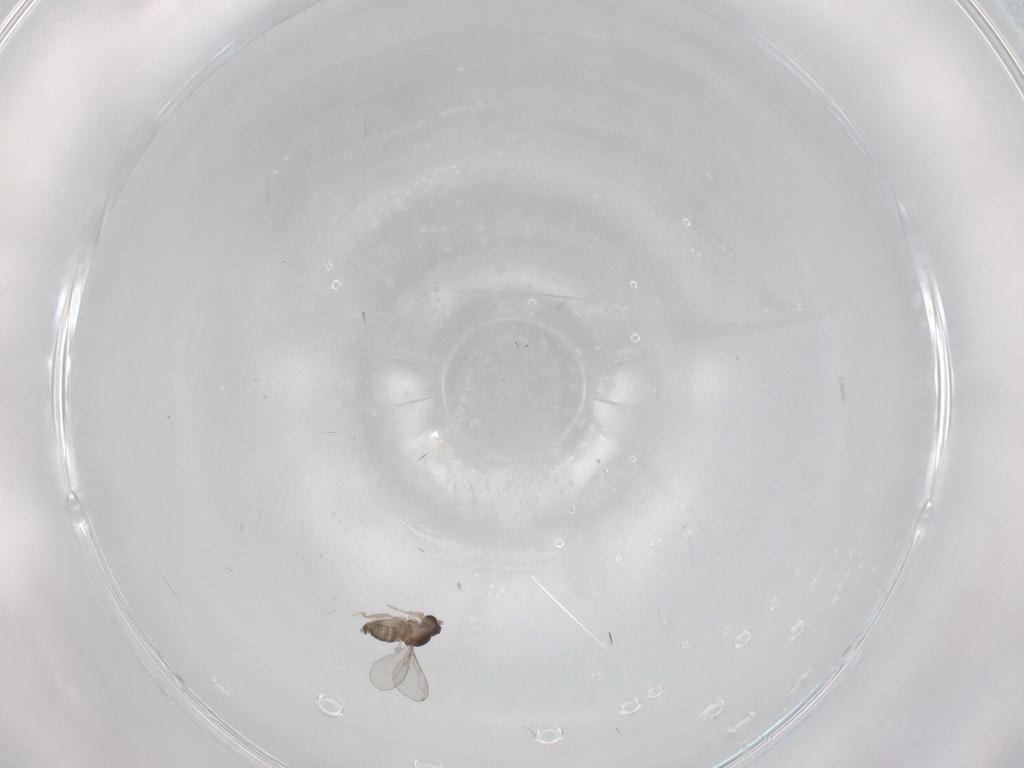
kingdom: Animalia
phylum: Arthropoda
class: Insecta
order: Diptera
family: Cecidomyiidae
